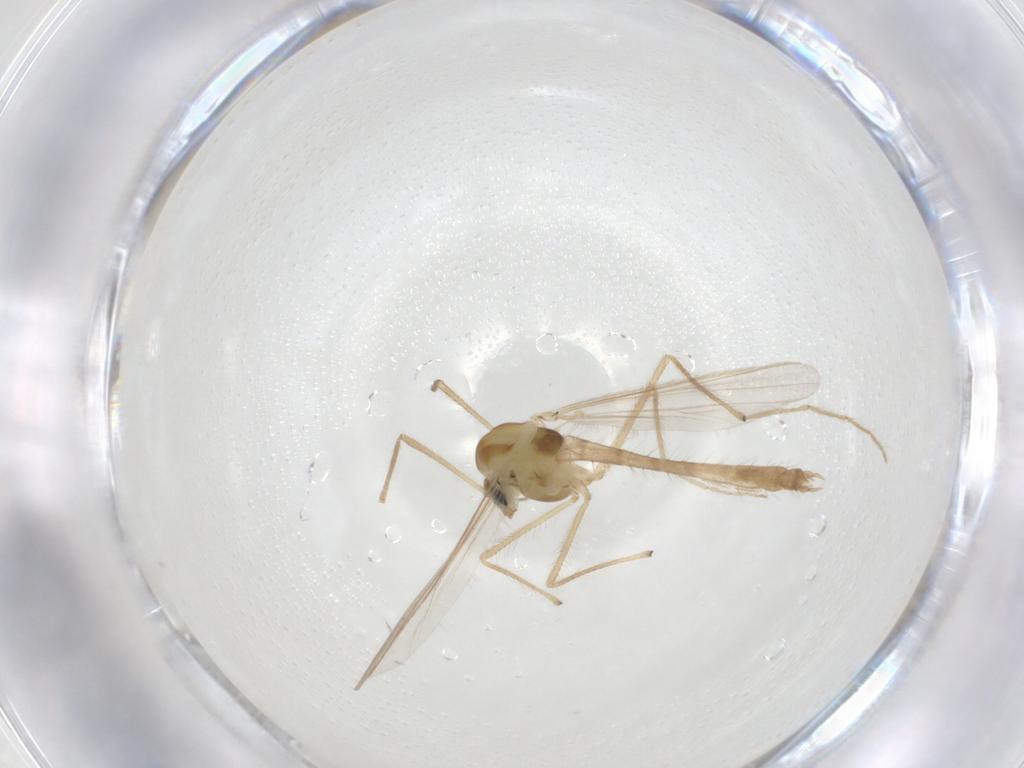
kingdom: Animalia
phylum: Arthropoda
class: Insecta
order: Diptera
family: Chironomidae
